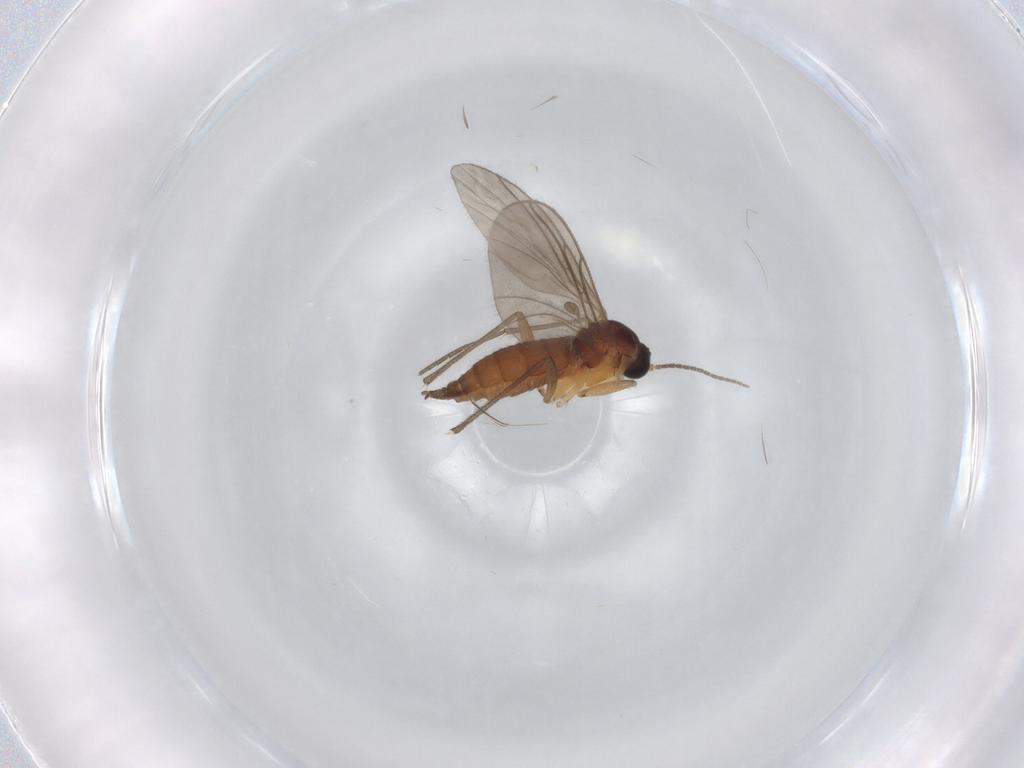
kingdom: Animalia
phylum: Arthropoda
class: Insecta
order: Diptera
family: Sciaridae
